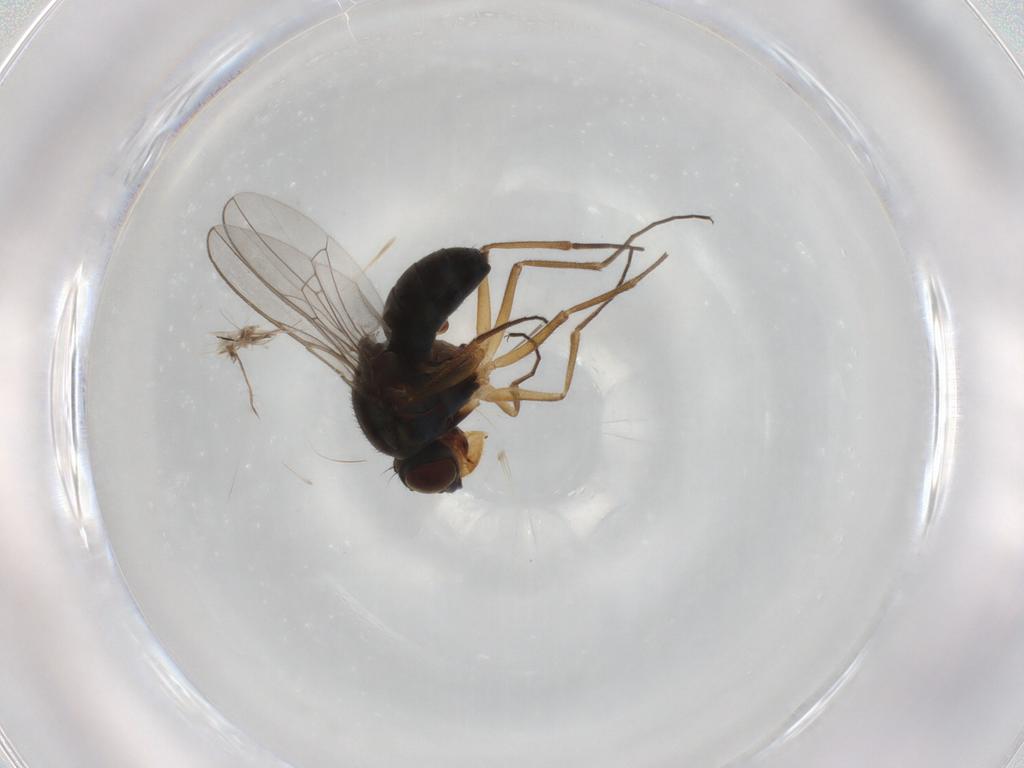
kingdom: Animalia
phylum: Arthropoda
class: Insecta
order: Diptera
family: Ephydridae
